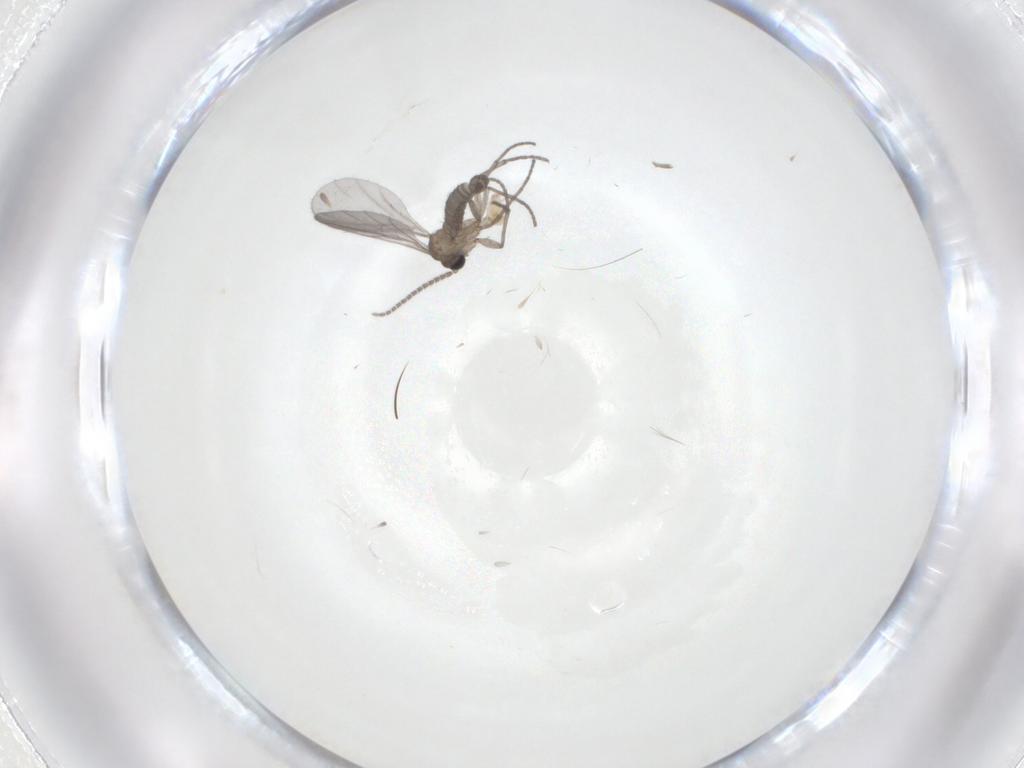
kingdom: Animalia
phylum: Arthropoda
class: Insecta
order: Diptera
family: Sciaridae
